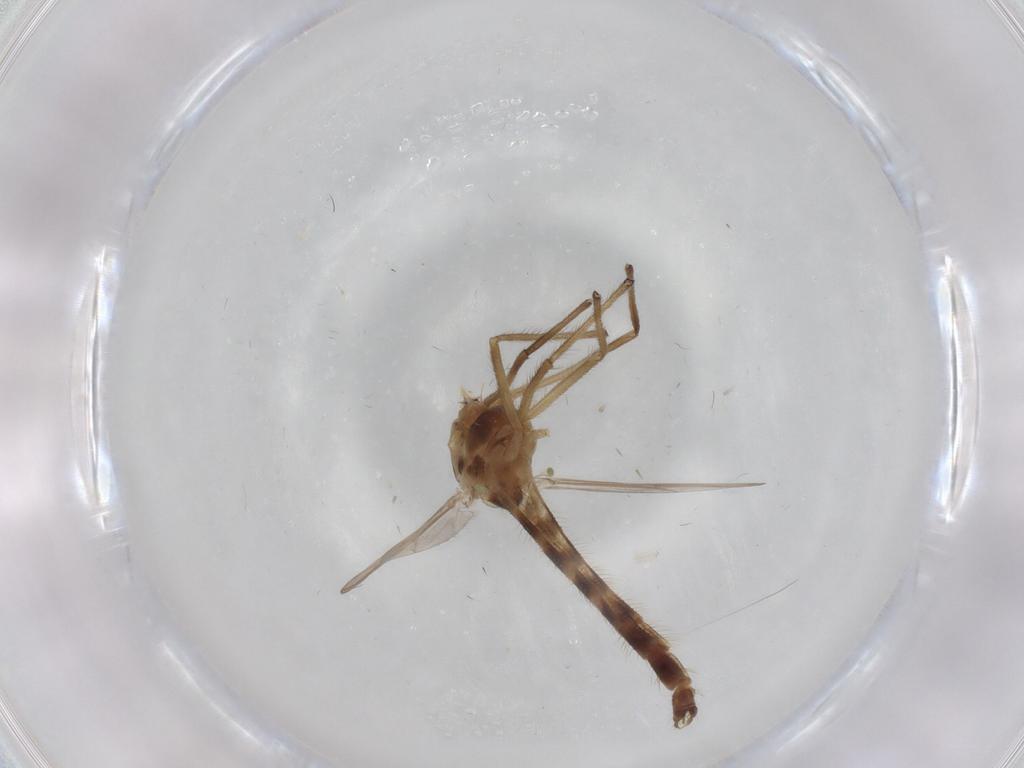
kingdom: Animalia
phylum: Arthropoda
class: Insecta
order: Diptera
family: Chironomidae
